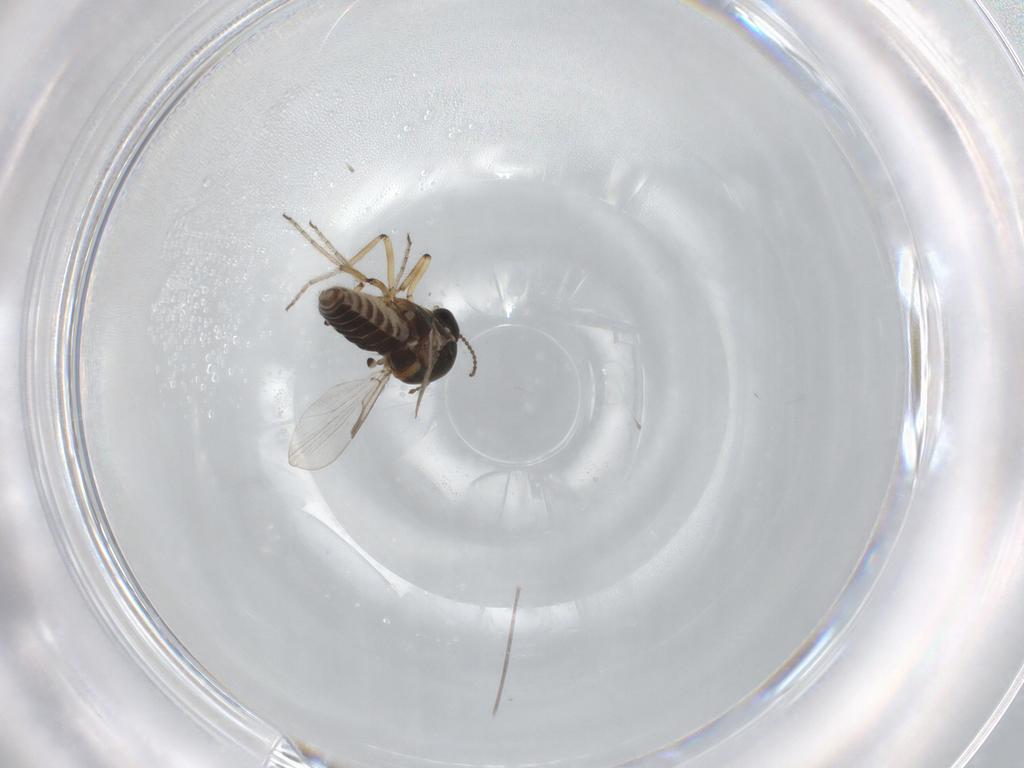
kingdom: Animalia
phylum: Arthropoda
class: Insecta
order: Diptera
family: Ceratopogonidae
